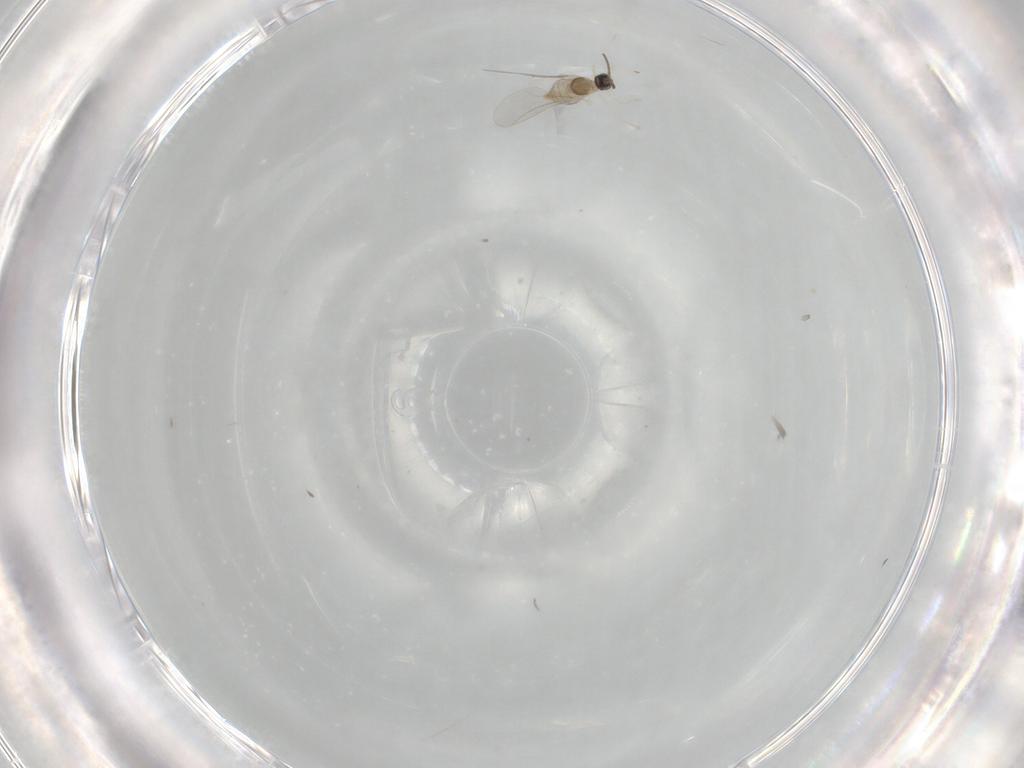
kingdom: Animalia
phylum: Arthropoda
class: Insecta
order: Diptera
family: Cecidomyiidae
